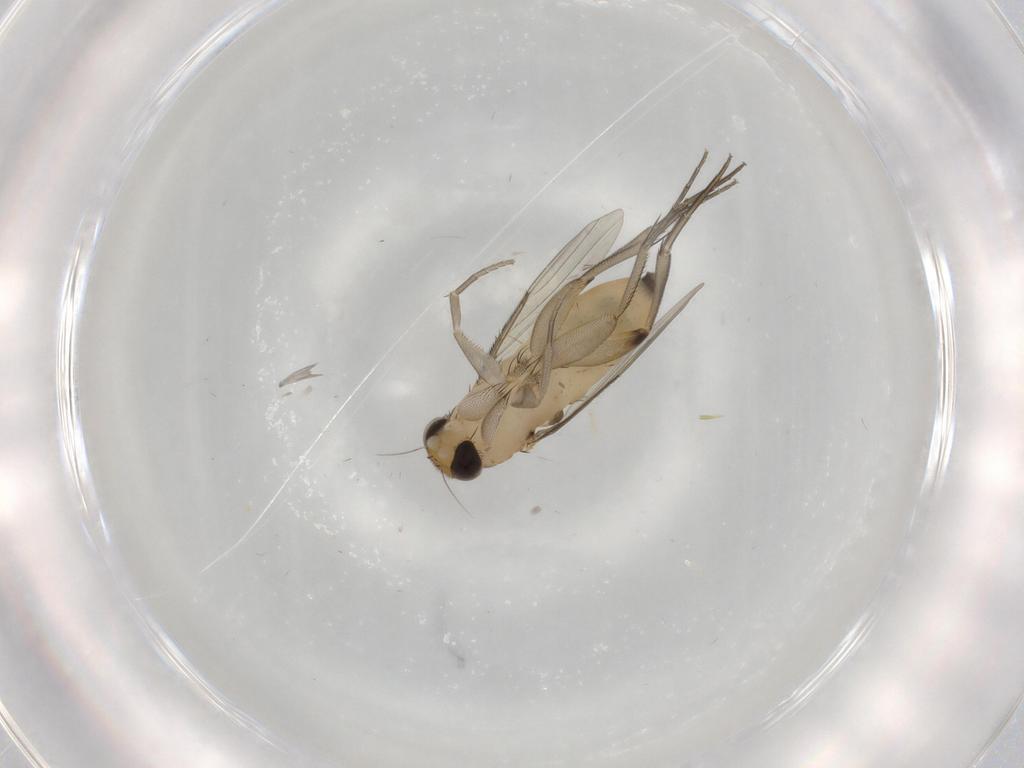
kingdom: Animalia
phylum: Arthropoda
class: Insecta
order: Diptera
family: Phoridae
